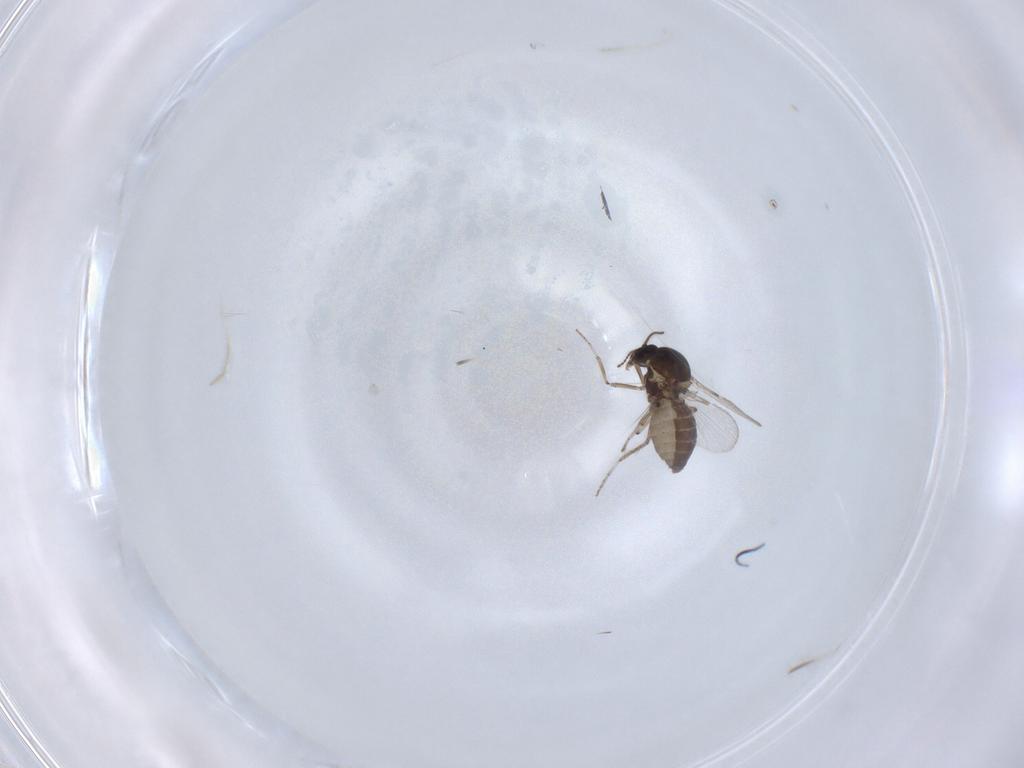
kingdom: Animalia
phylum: Arthropoda
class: Insecta
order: Diptera
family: Ceratopogonidae
